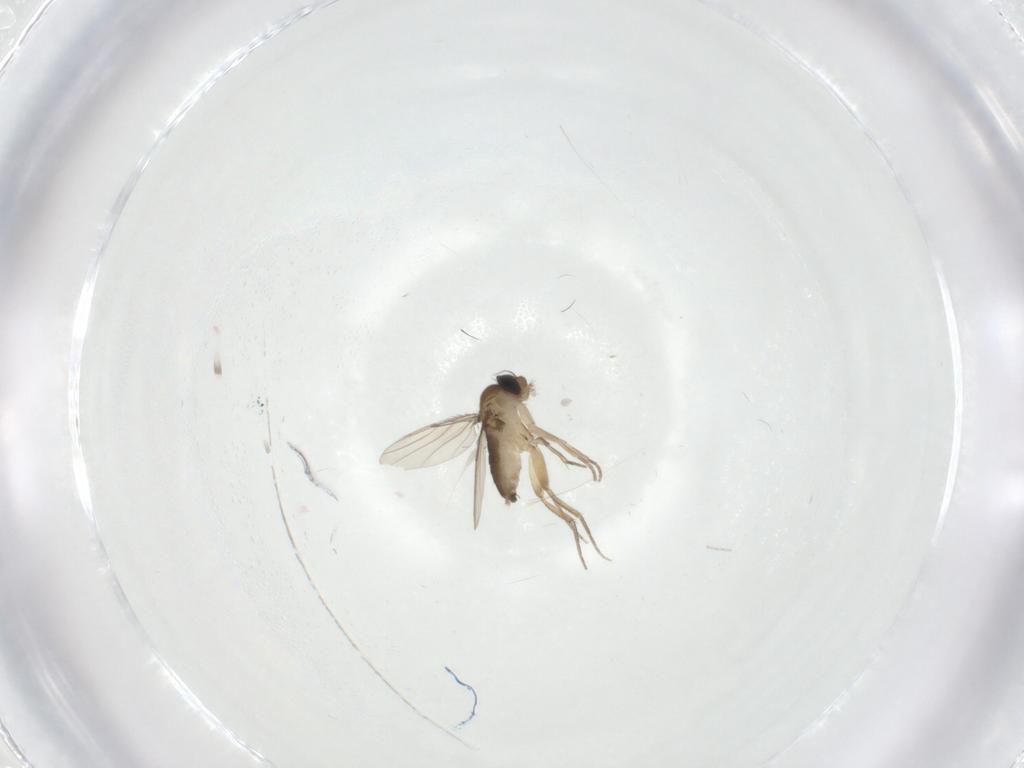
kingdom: Animalia
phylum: Arthropoda
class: Insecta
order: Diptera
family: Phoridae
